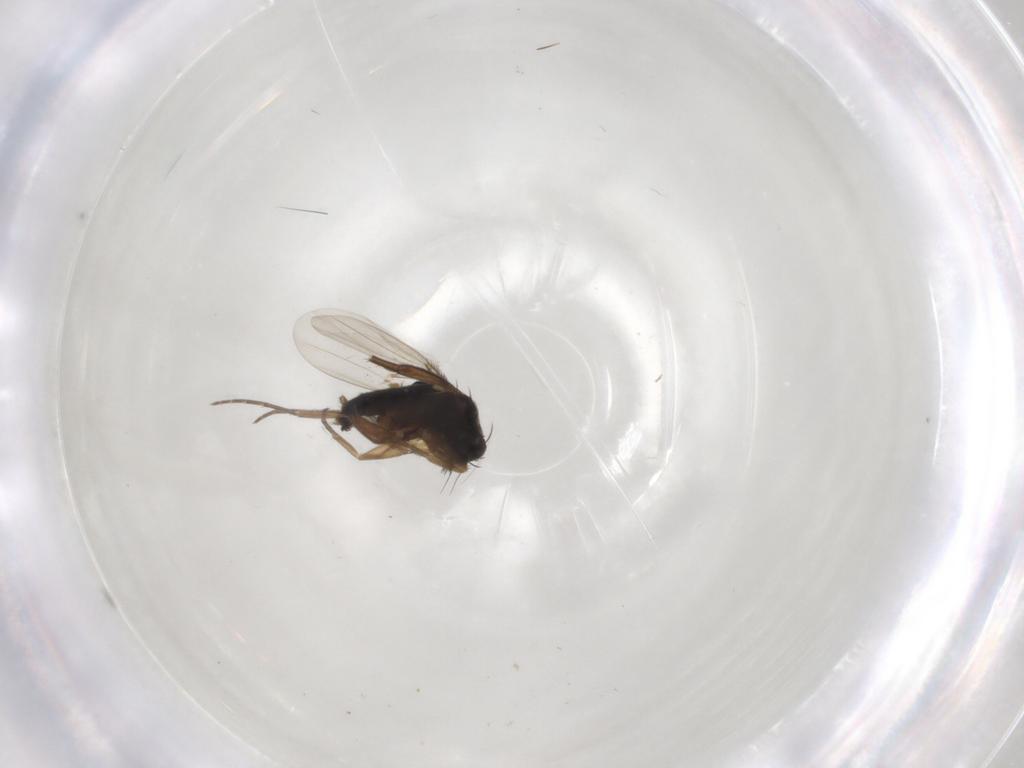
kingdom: Animalia
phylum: Arthropoda
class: Insecta
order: Diptera
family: Phoridae
